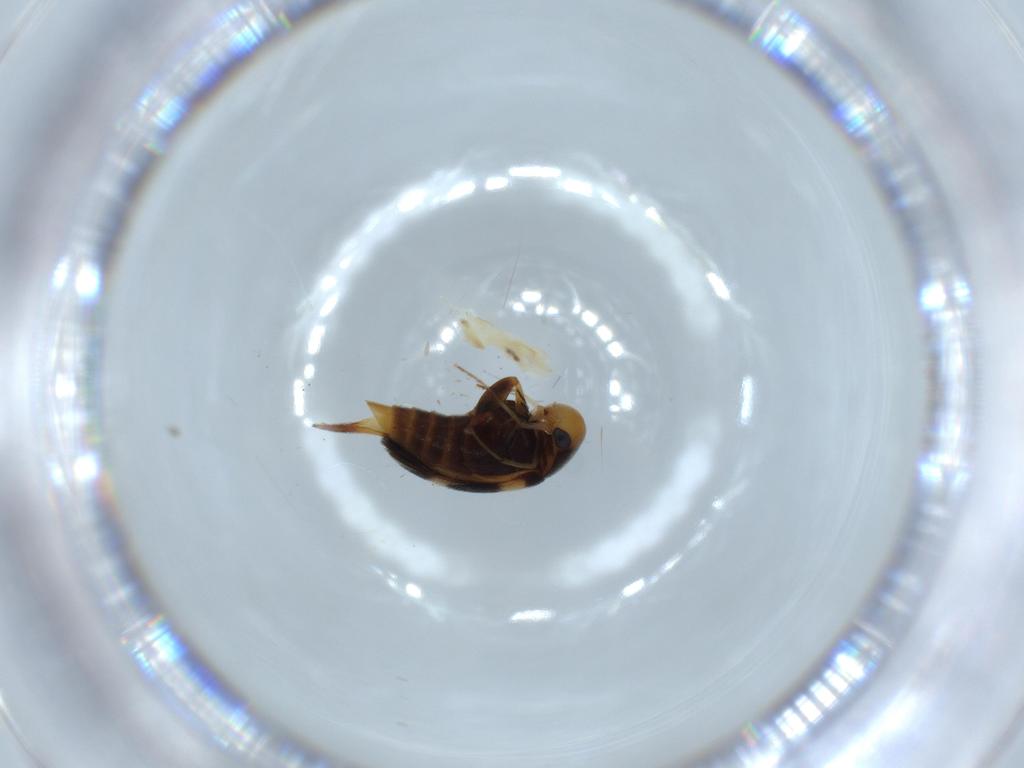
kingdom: Animalia
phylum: Arthropoda
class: Insecta
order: Coleoptera
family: Mordellidae
